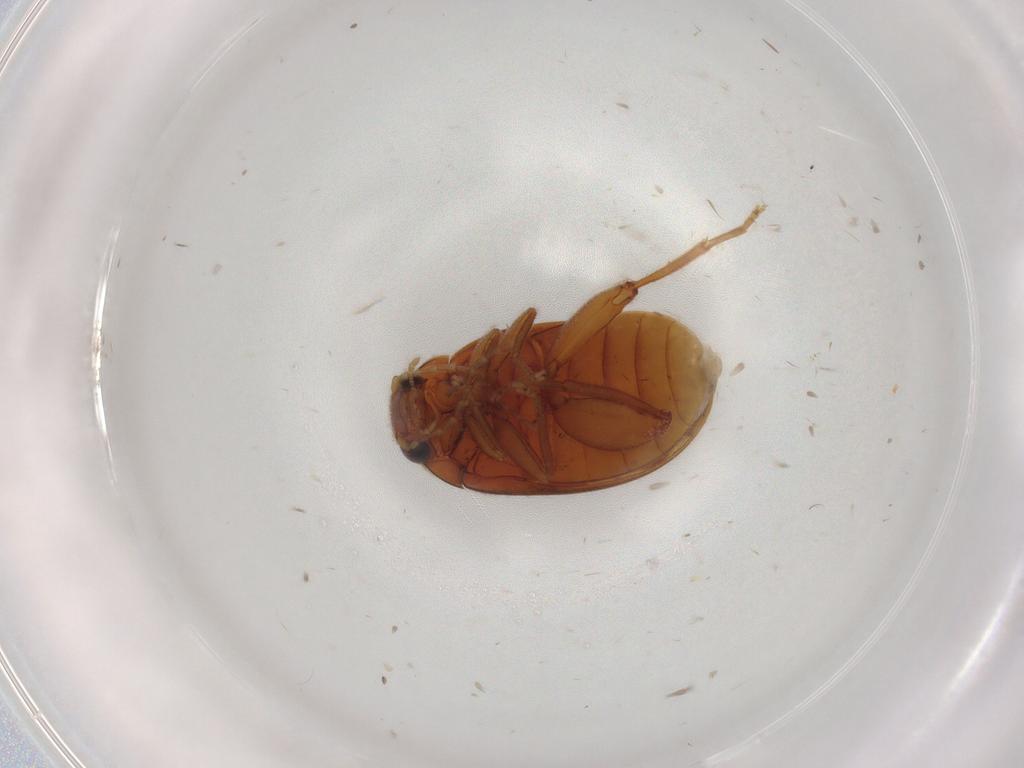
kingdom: Animalia
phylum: Arthropoda
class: Insecta
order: Coleoptera
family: Scirtidae
